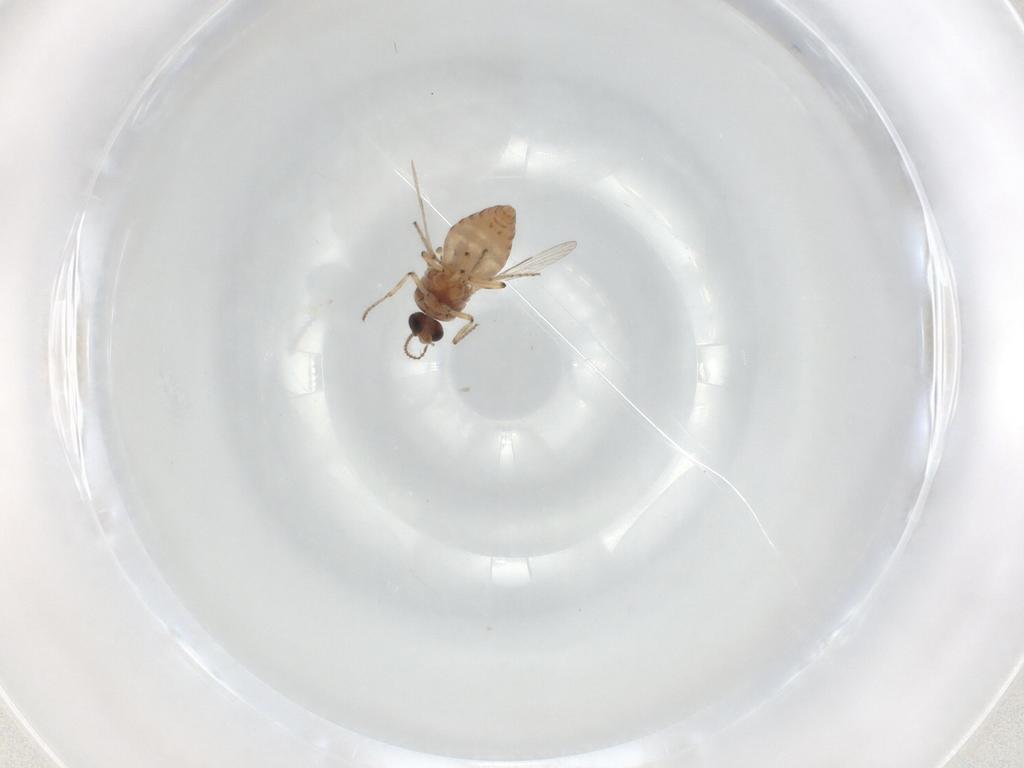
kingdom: Animalia
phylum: Arthropoda
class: Insecta
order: Diptera
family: Ceratopogonidae
